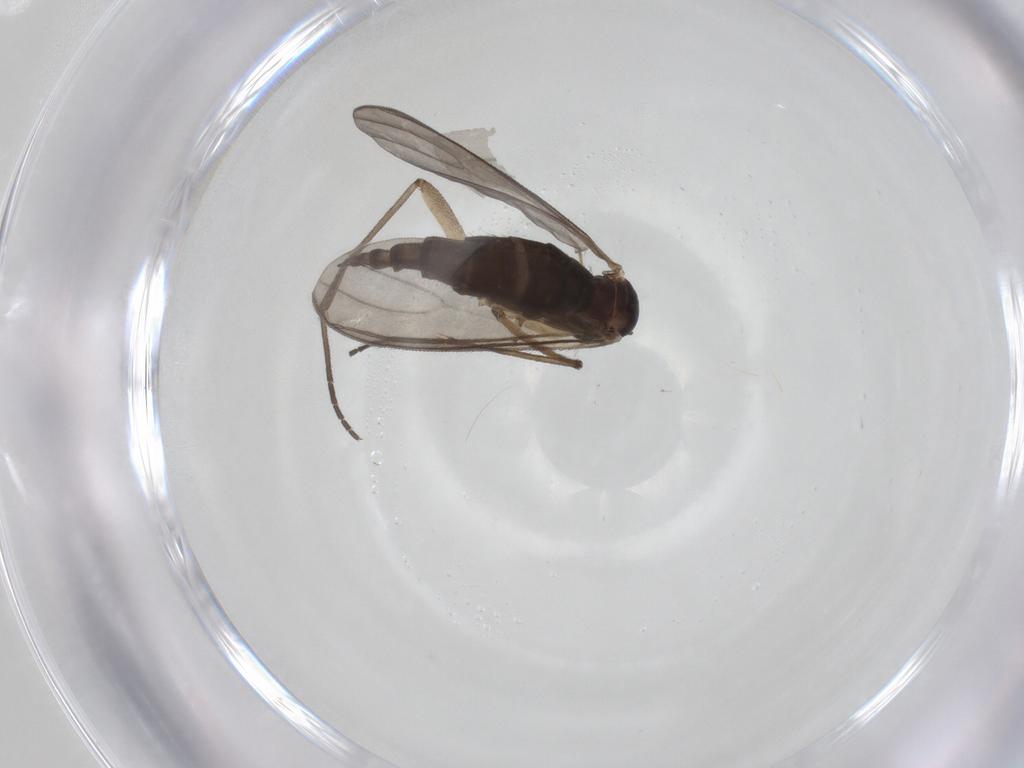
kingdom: Animalia
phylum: Arthropoda
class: Insecta
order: Diptera
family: Sciaridae
